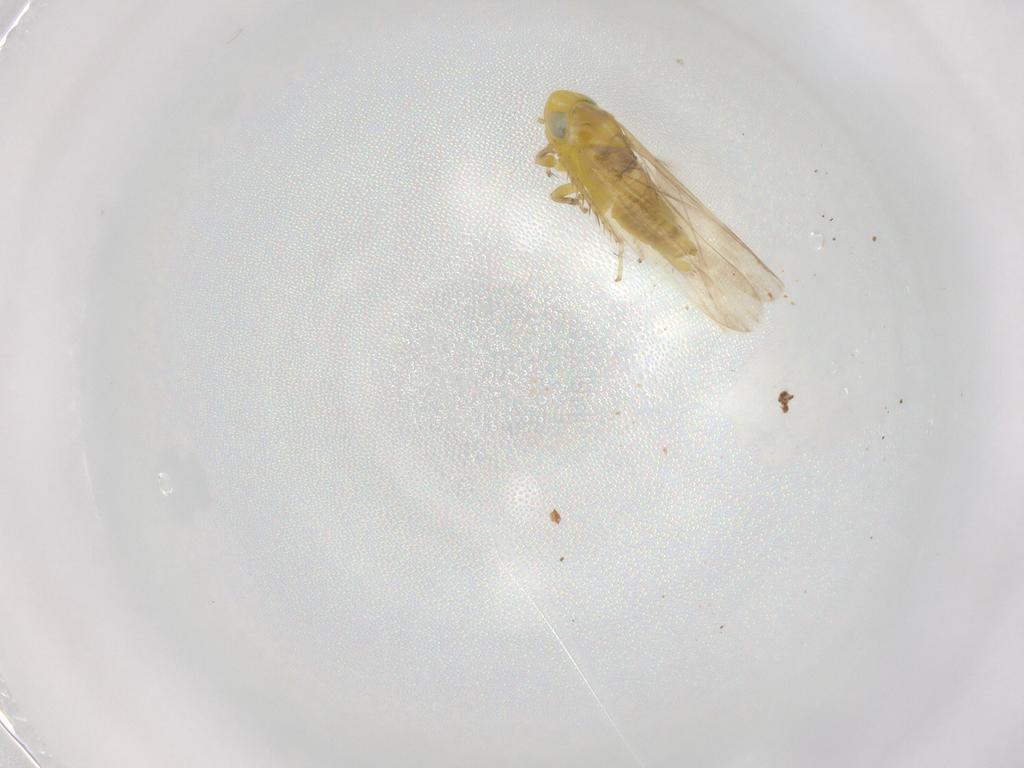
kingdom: Animalia
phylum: Arthropoda
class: Insecta
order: Hemiptera
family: Cicadellidae
